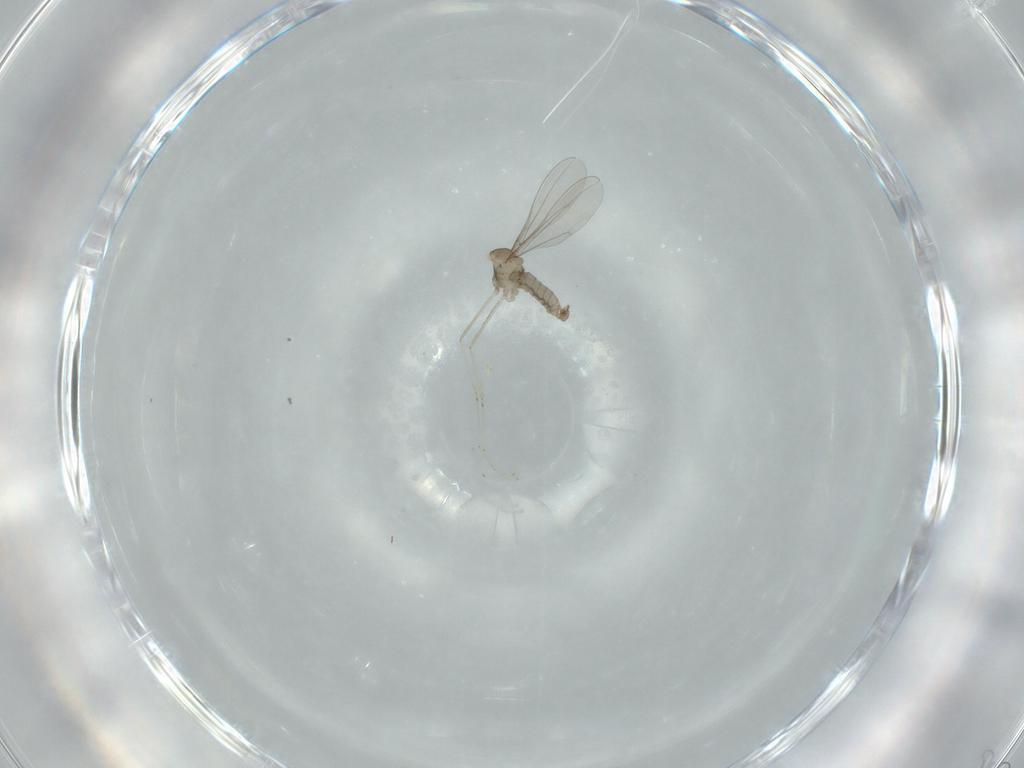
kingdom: Animalia
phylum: Arthropoda
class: Insecta
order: Diptera
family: Cecidomyiidae
